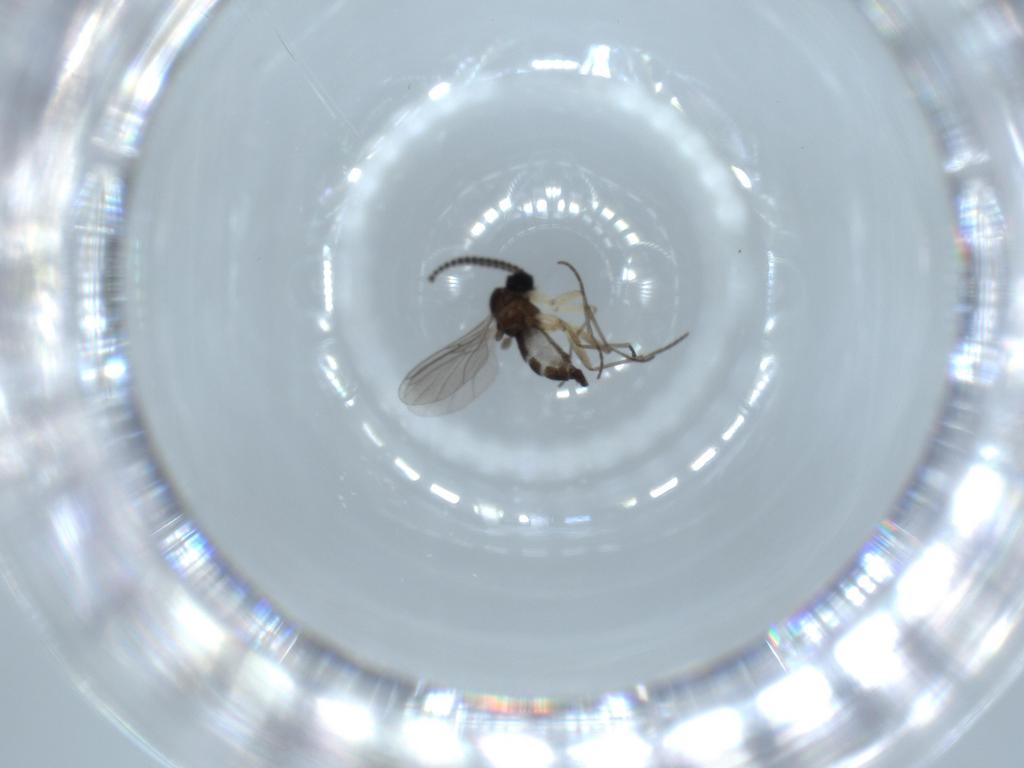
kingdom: Animalia
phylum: Arthropoda
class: Insecta
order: Diptera
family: Sciaridae
